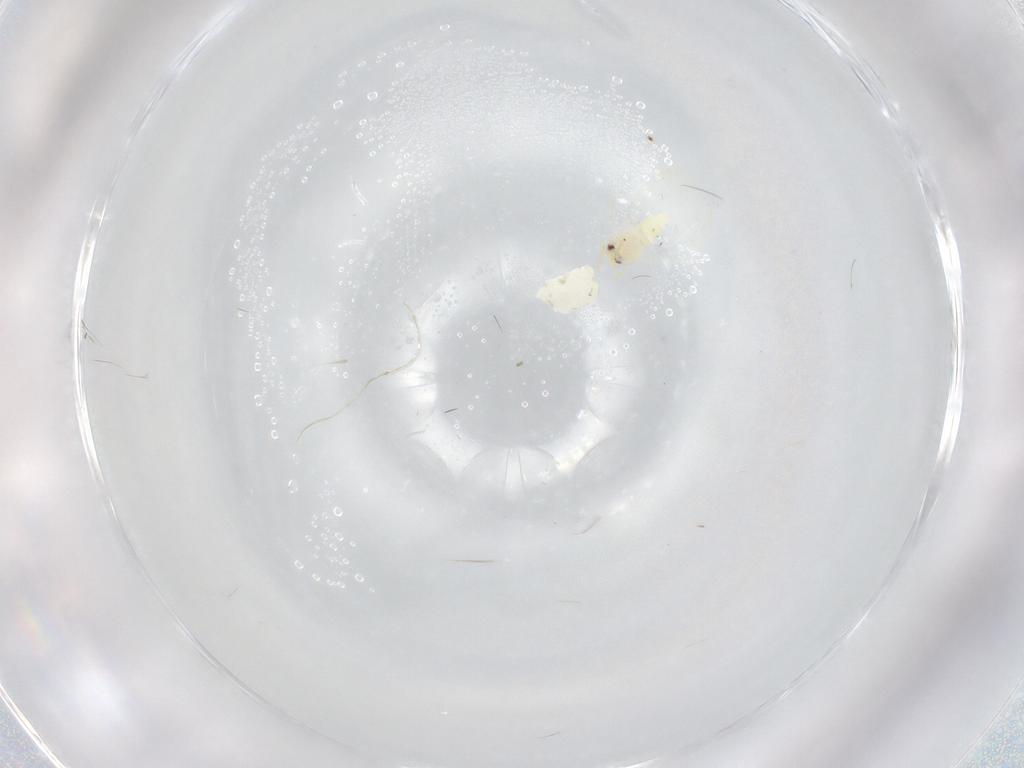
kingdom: Animalia
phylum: Arthropoda
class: Insecta
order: Hemiptera
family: Aleyrodidae
